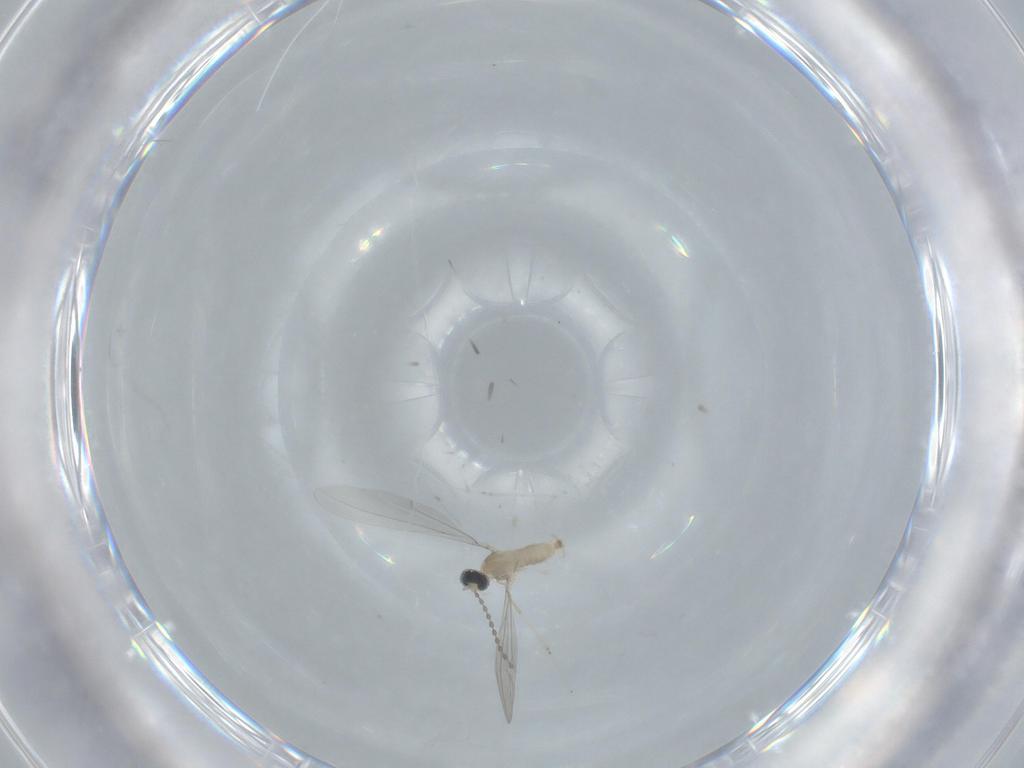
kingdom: Animalia
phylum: Arthropoda
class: Insecta
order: Diptera
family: Cecidomyiidae
